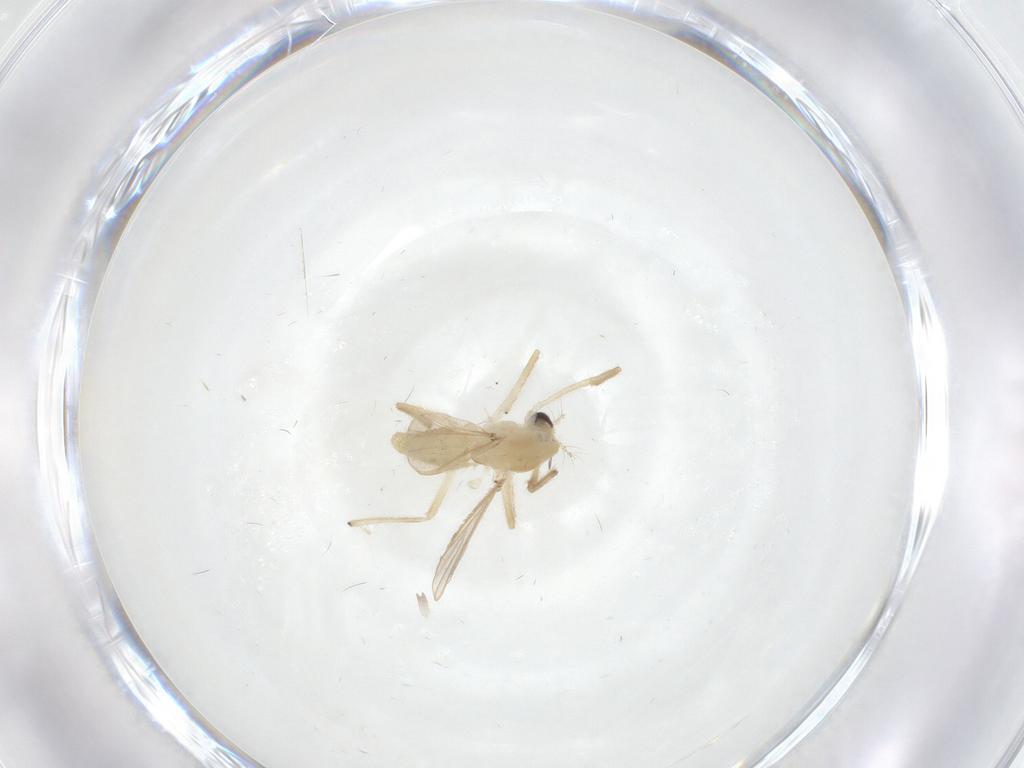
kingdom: Animalia
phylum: Arthropoda
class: Insecta
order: Diptera
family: Chironomidae
